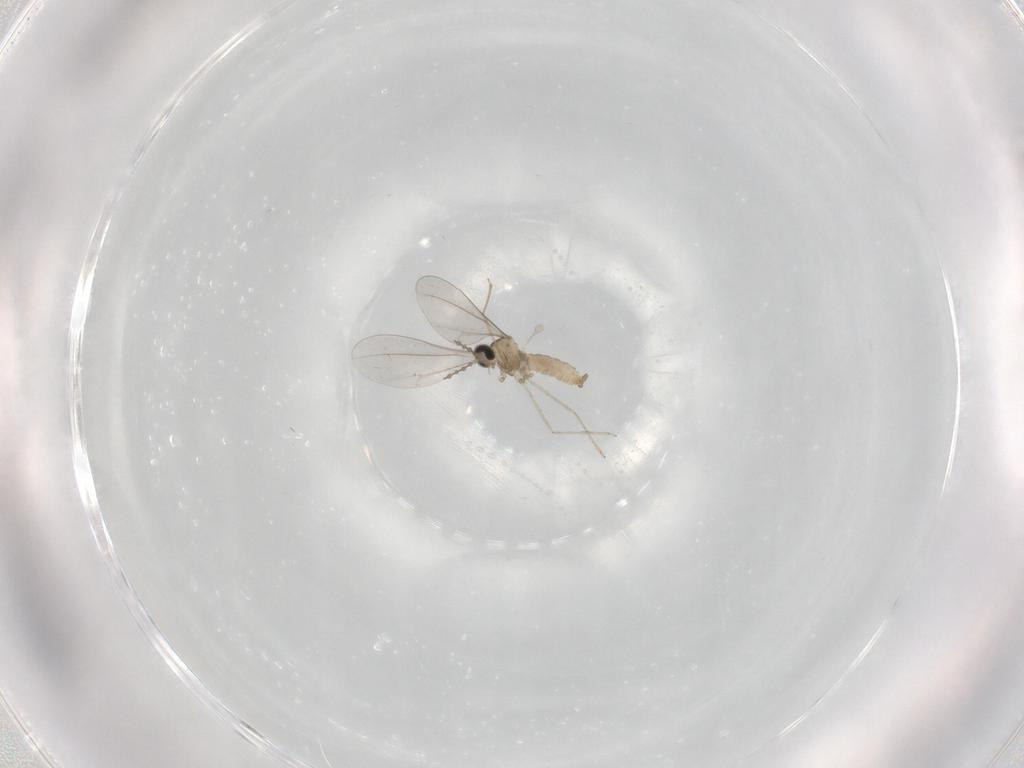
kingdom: Animalia
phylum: Arthropoda
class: Insecta
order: Diptera
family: Cecidomyiidae
